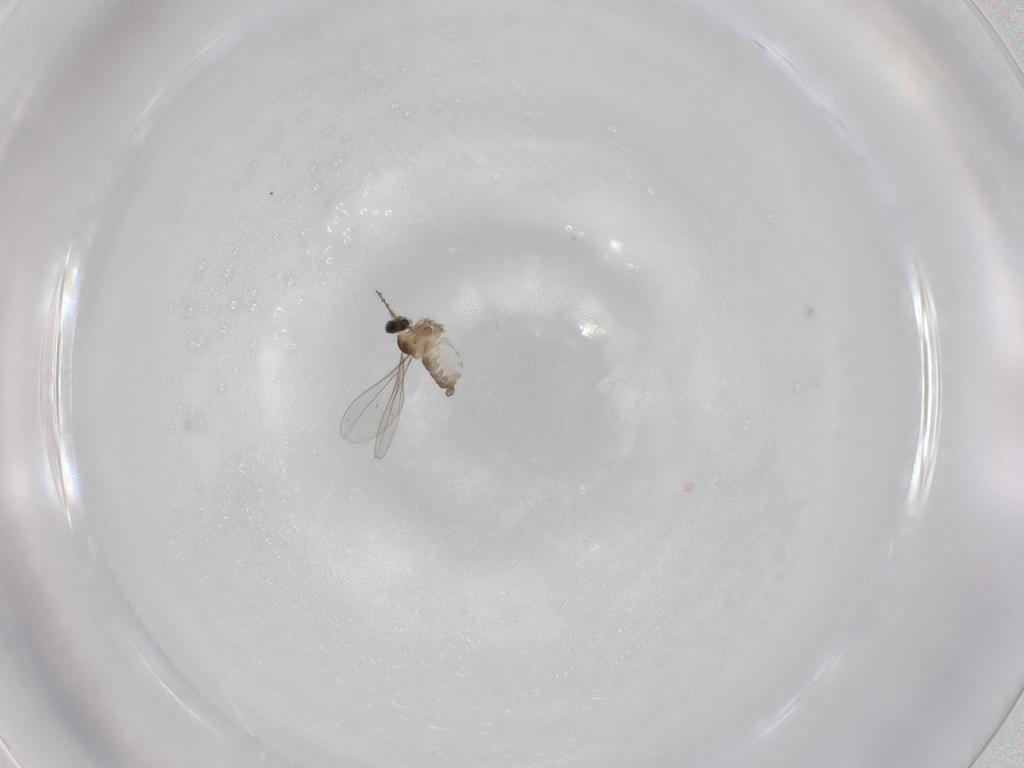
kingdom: Animalia
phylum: Arthropoda
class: Insecta
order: Diptera
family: Cecidomyiidae
